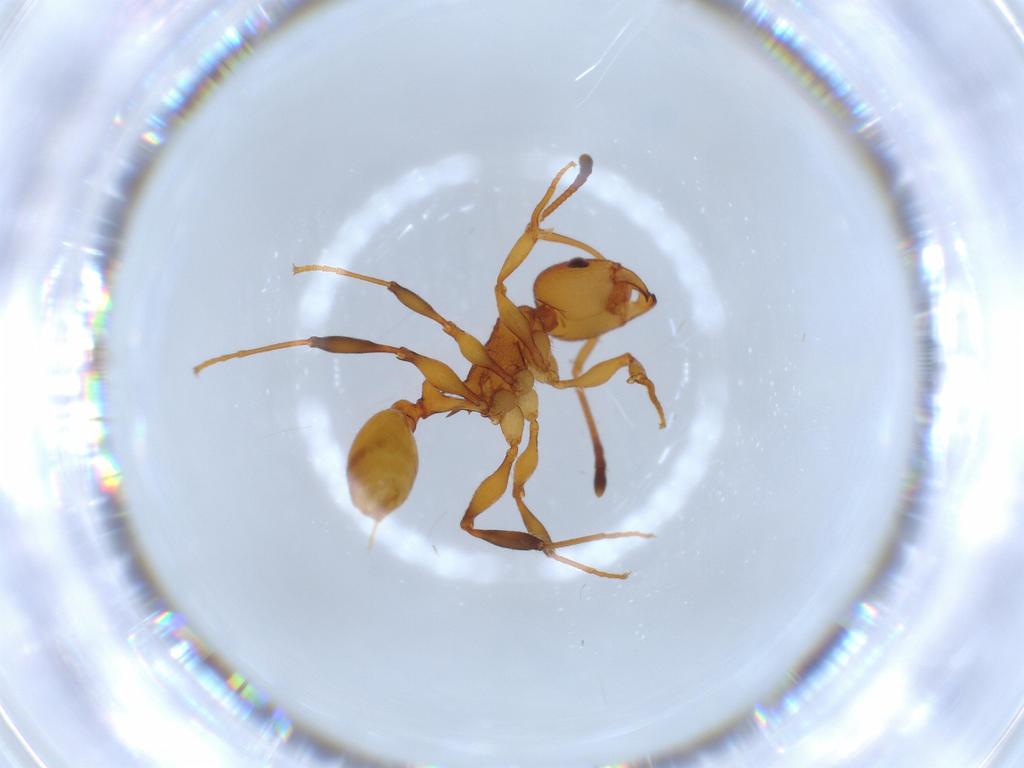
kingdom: Animalia
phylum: Arthropoda
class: Insecta
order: Hymenoptera
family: Formicidae
